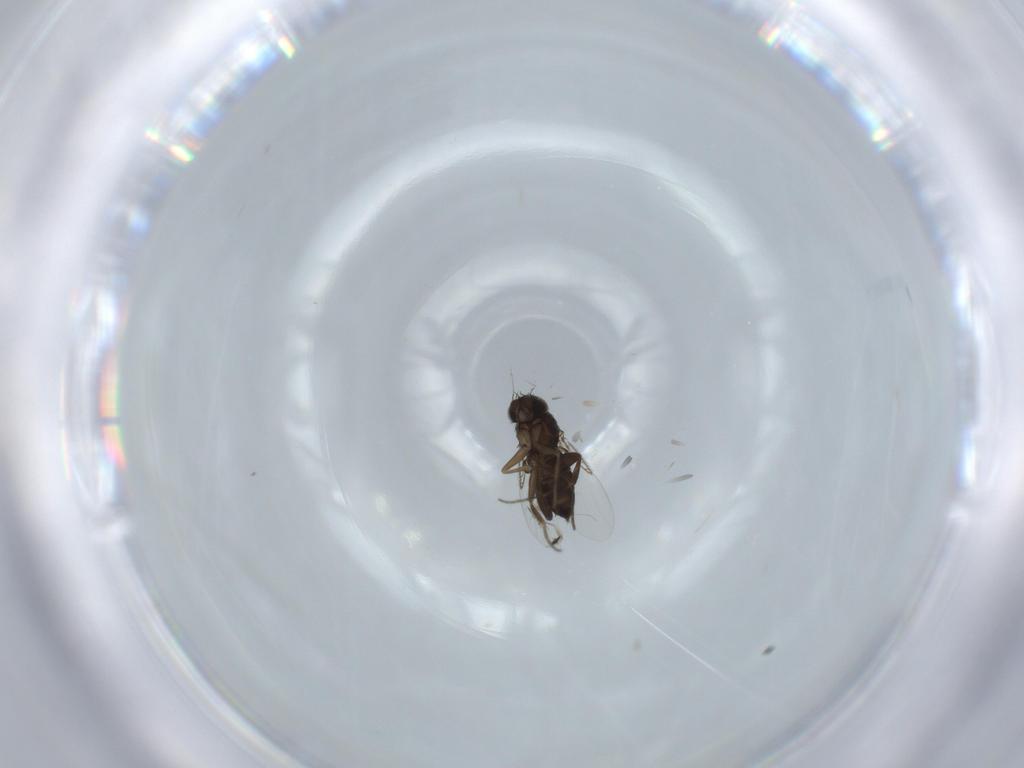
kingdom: Animalia
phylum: Arthropoda
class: Insecta
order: Diptera
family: Phoridae
